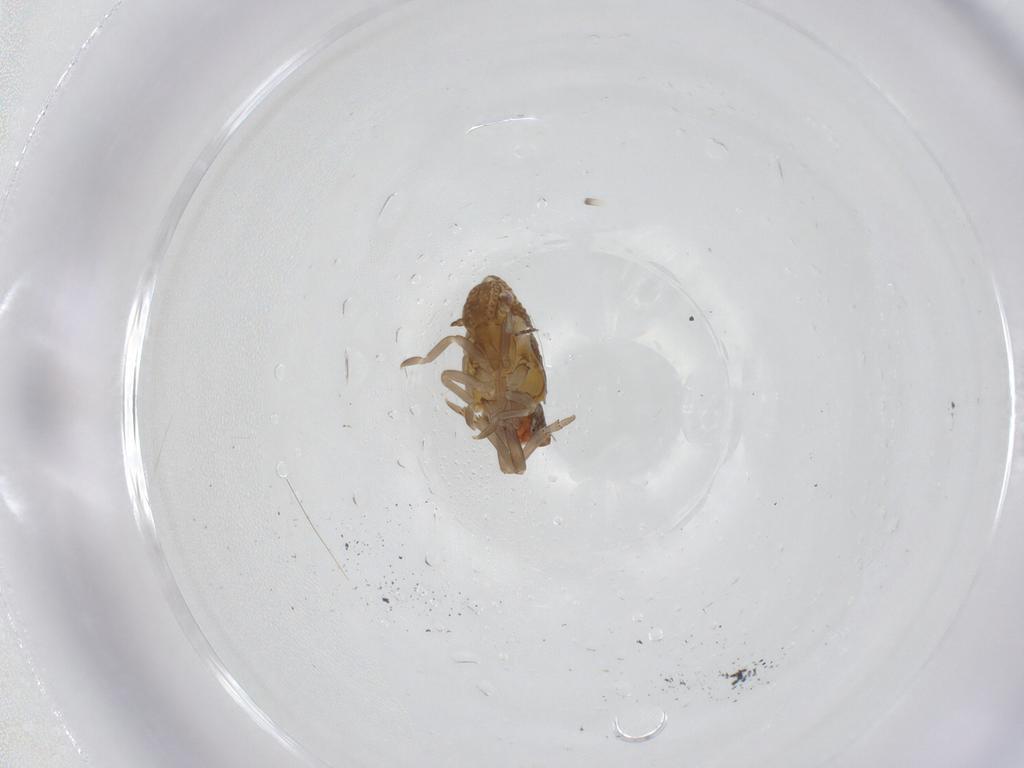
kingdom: Animalia
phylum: Arthropoda
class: Insecta
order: Hemiptera
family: Flatidae
